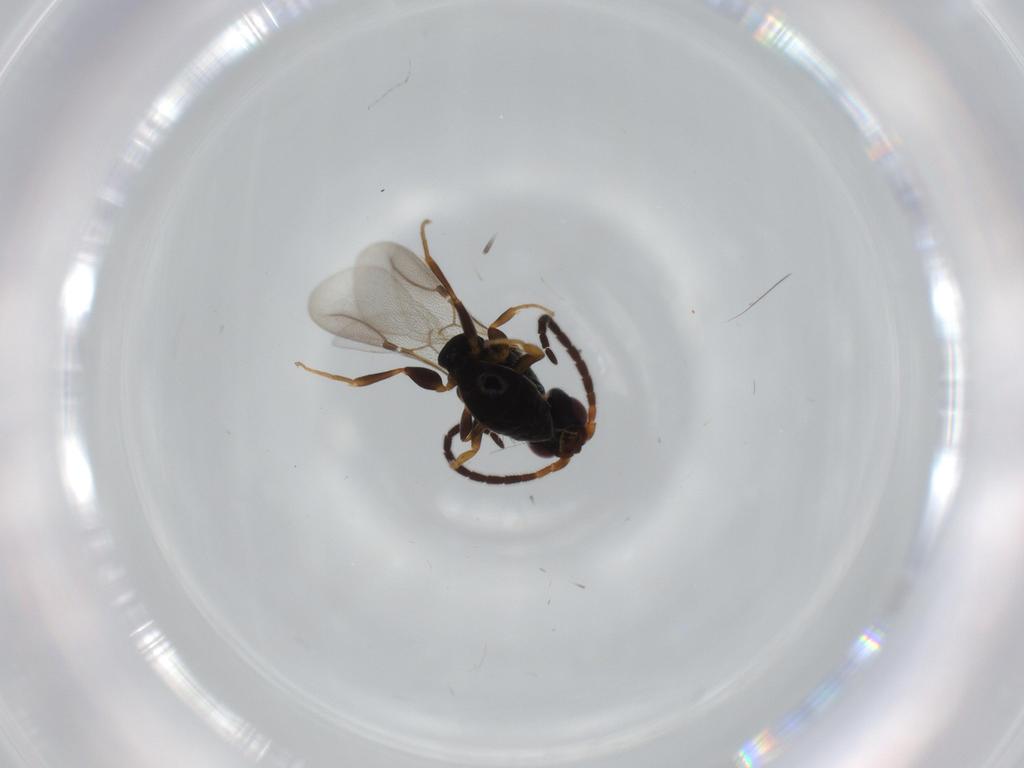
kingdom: Animalia
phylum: Arthropoda
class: Insecta
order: Hymenoptera
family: Bethylidae
